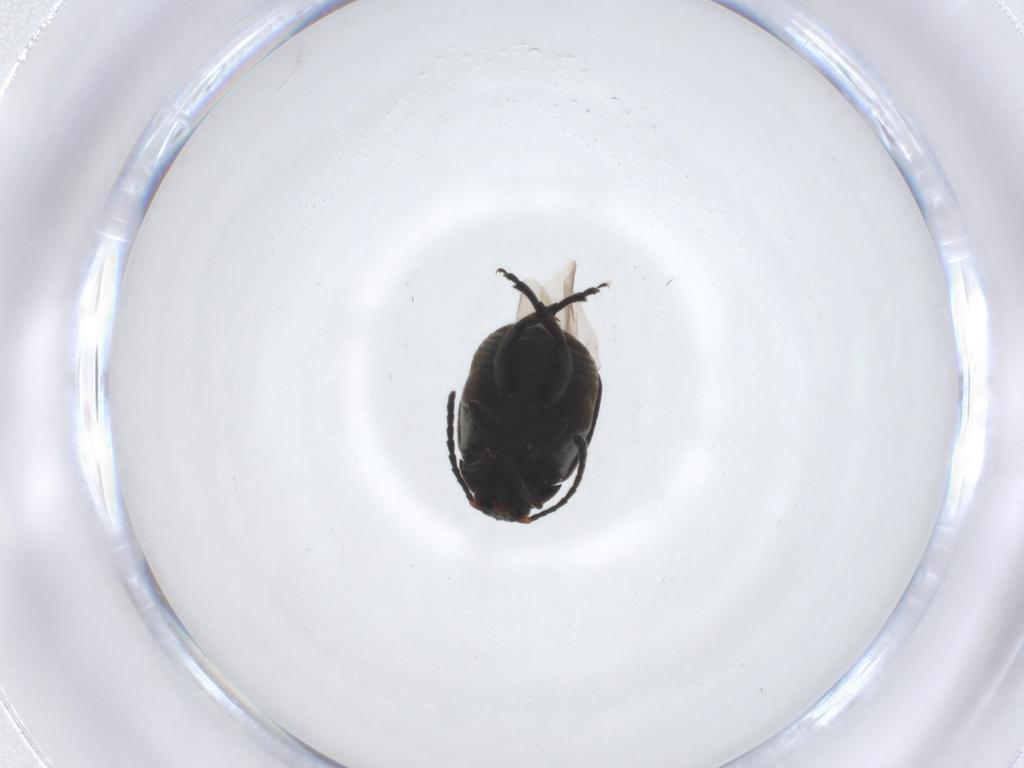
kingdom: Animalia
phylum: Arthropoda
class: Insecta
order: Coleoptera
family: Chrysomelidae
